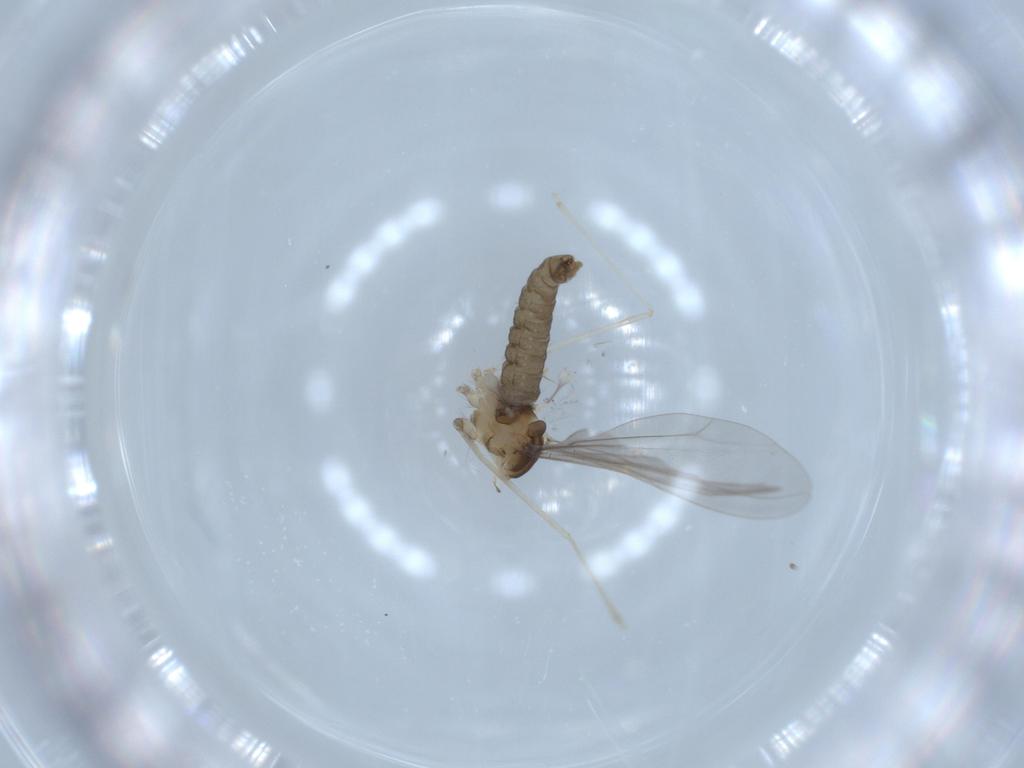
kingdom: Animalia
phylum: Arthropoda
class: Insecta
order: Diptera
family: Cecidomyiidae
